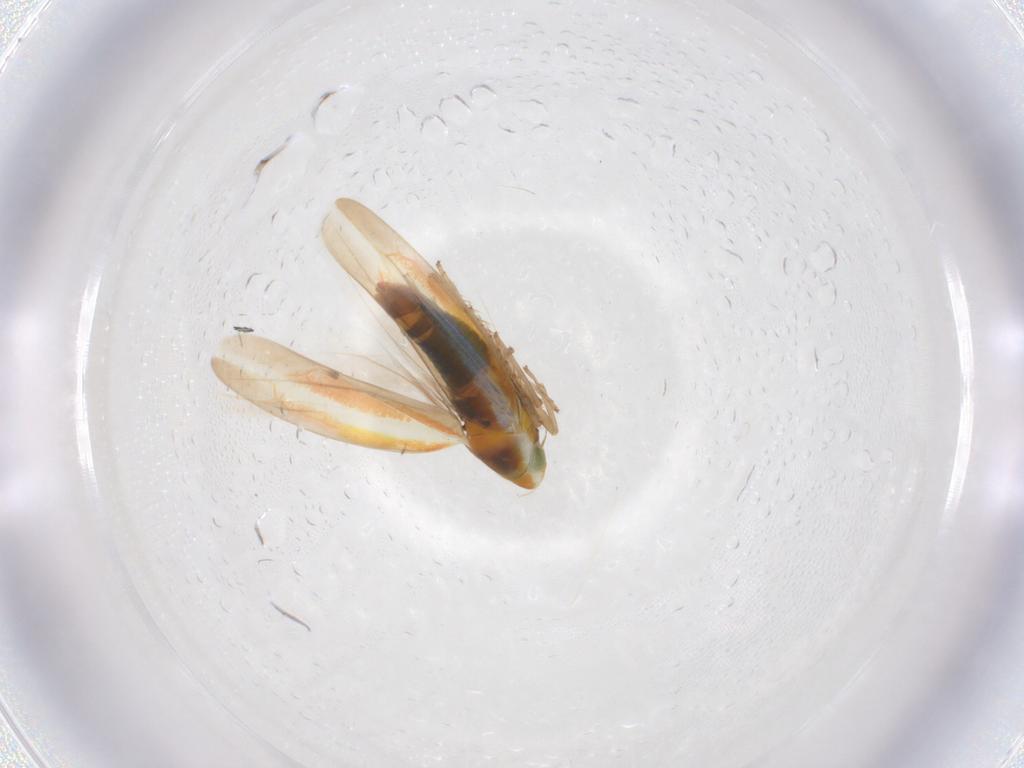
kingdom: Animalia
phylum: Arthropoda
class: Insecta
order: Hemiptera
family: Cicadellidae
